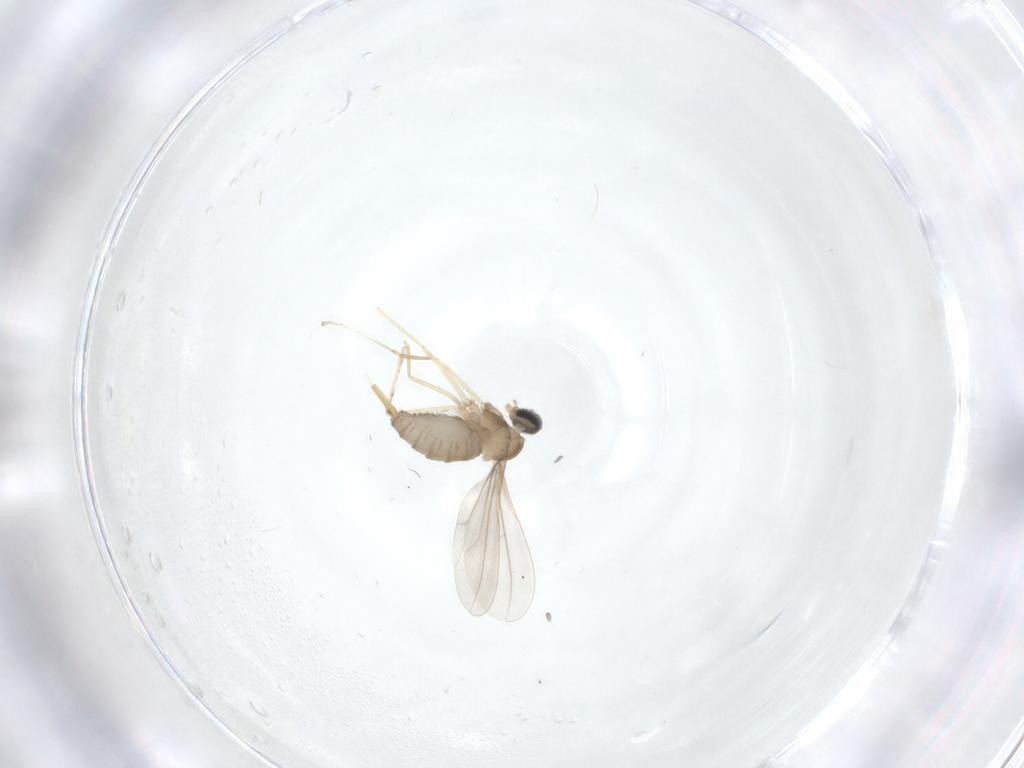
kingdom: Animalia
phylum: Arthropoda
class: Insecta
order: Diptera
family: Cecidomyiidae
